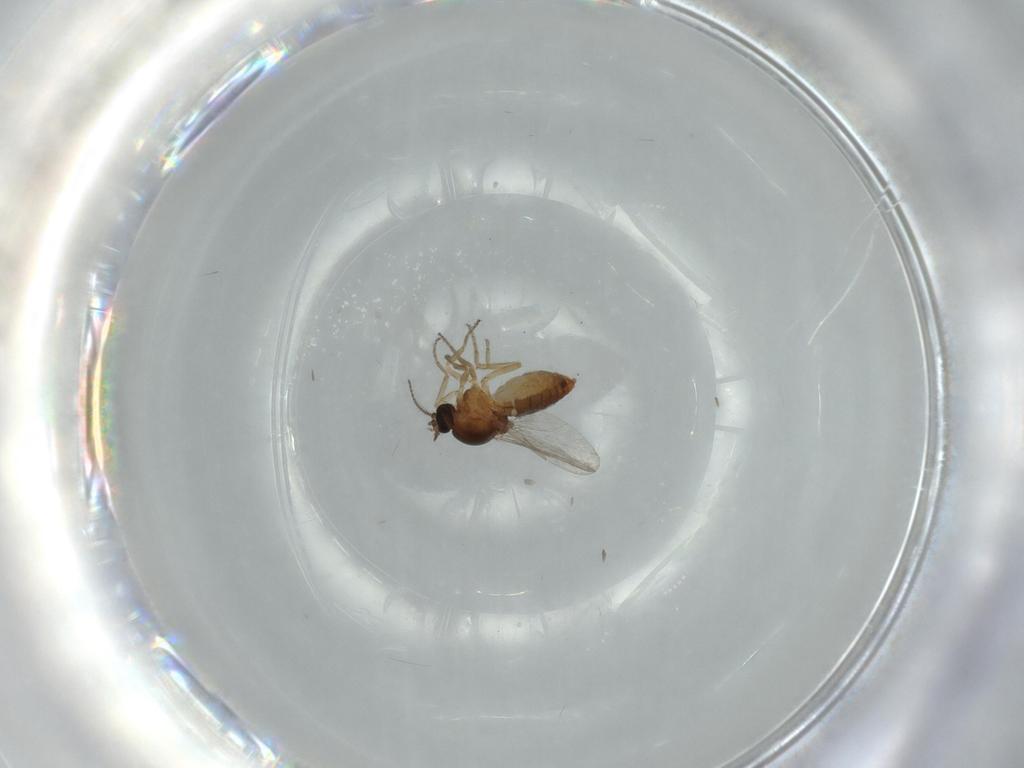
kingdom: Animalia
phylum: Arthropoda
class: Insecta
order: Diptera
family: Ceratopogonidae
